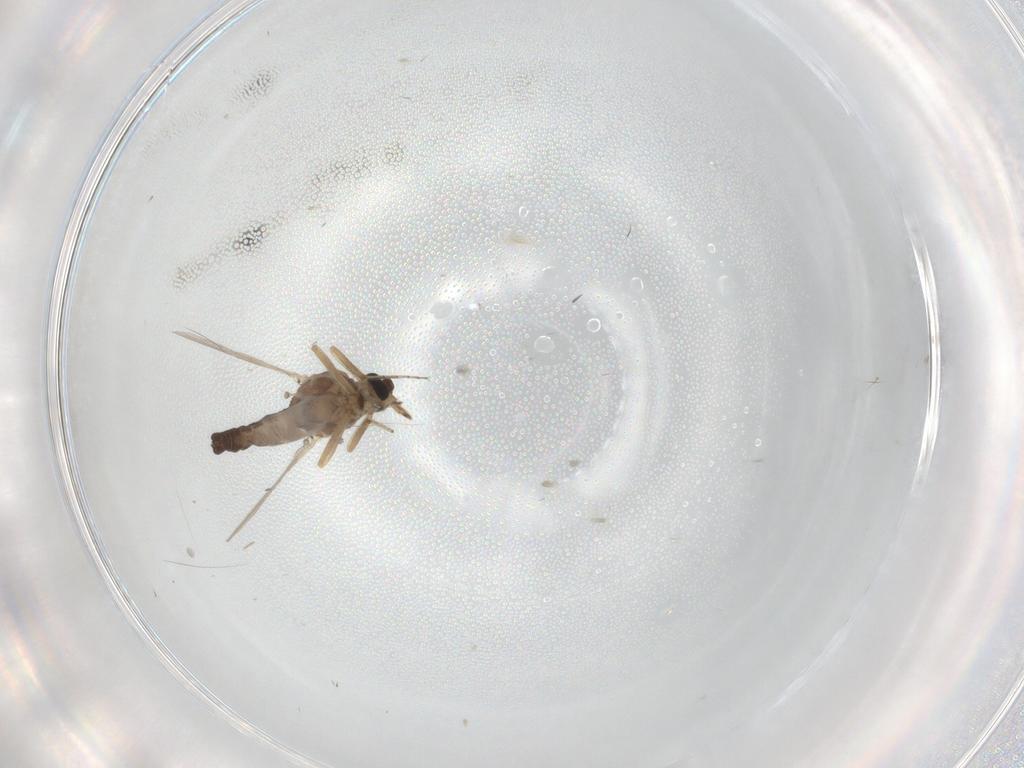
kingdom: Animalia
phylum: Arthropoda
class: Insecta
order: Diptera
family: Ceratopogonidae
